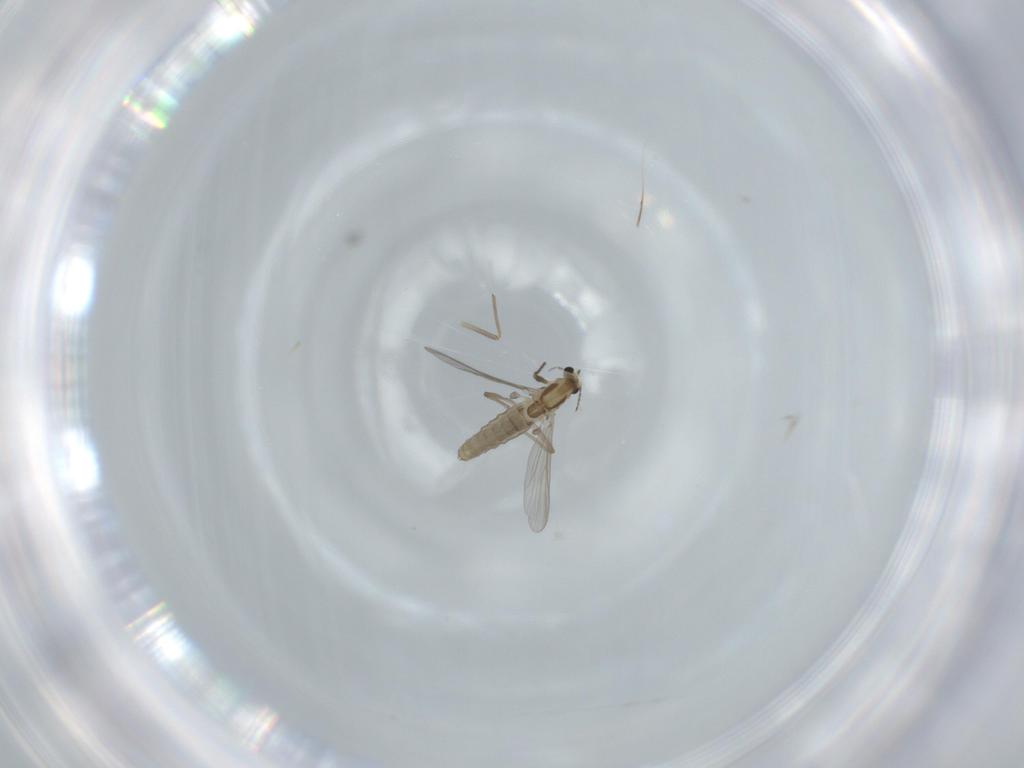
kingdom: Animalia
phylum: Arthropoda
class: Insecta
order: Diptera
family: Chironomidae
